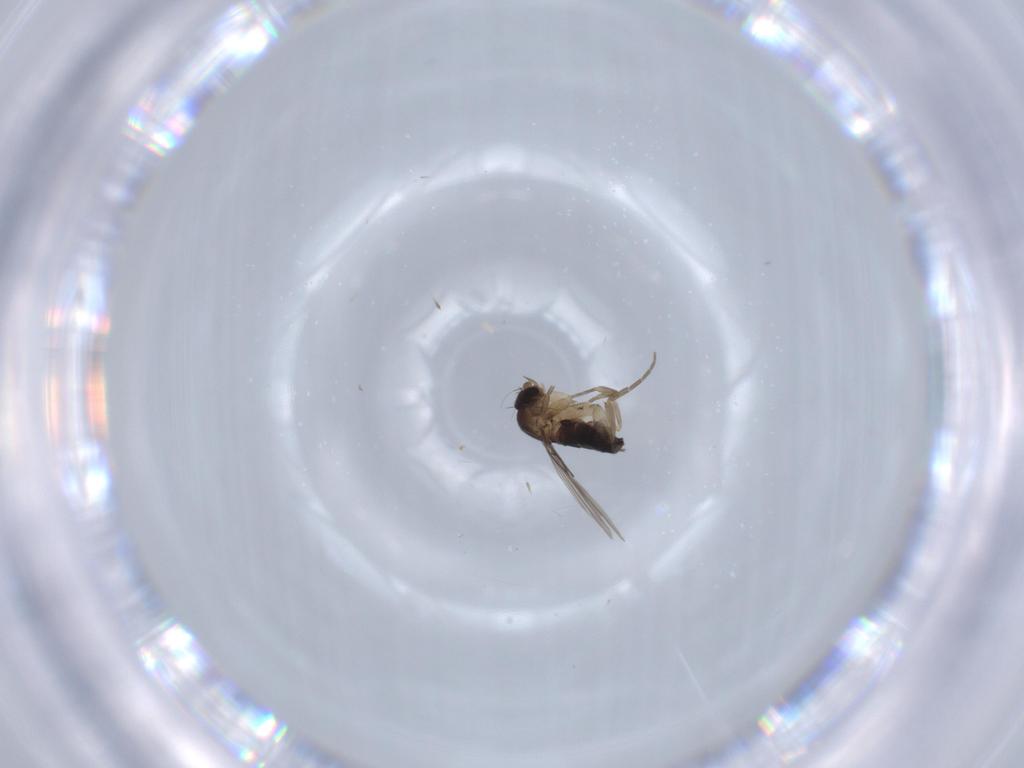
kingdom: Animalia
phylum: Arthropoda
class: Insecta
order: Diptera
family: Phoridae
